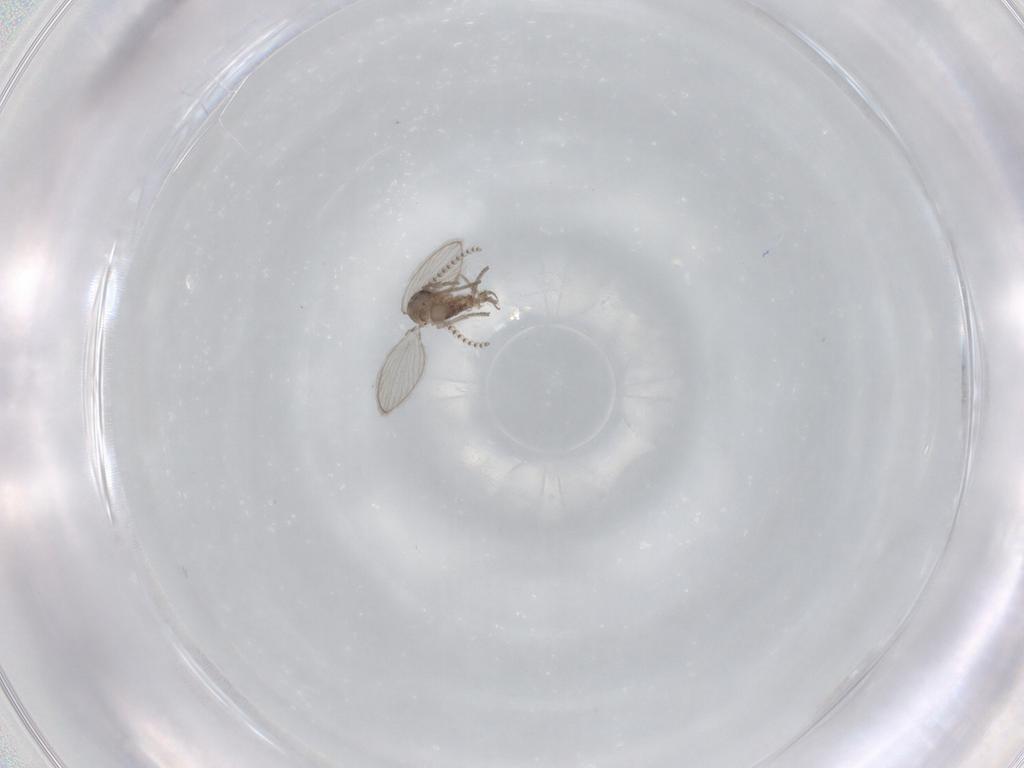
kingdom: Animalia
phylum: Arthropoda
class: Insecta
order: Diptera
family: Psychodidae
